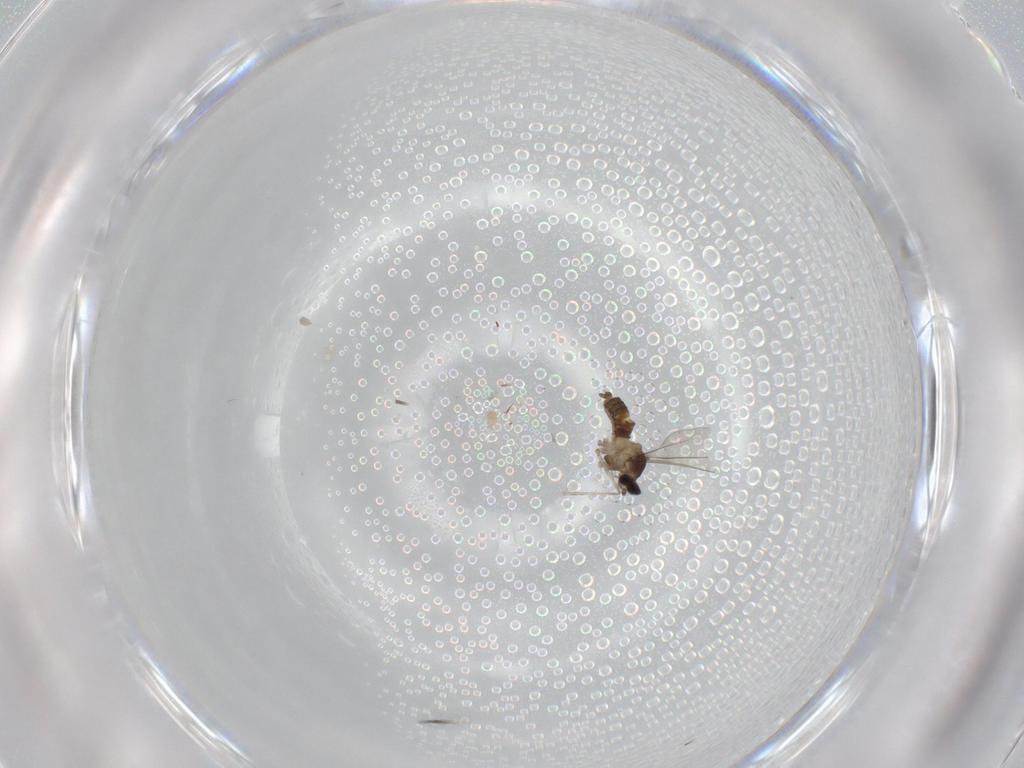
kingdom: Animalia
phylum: Arthropoda
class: Insecta
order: Diptera
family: Cecidomyiidae
